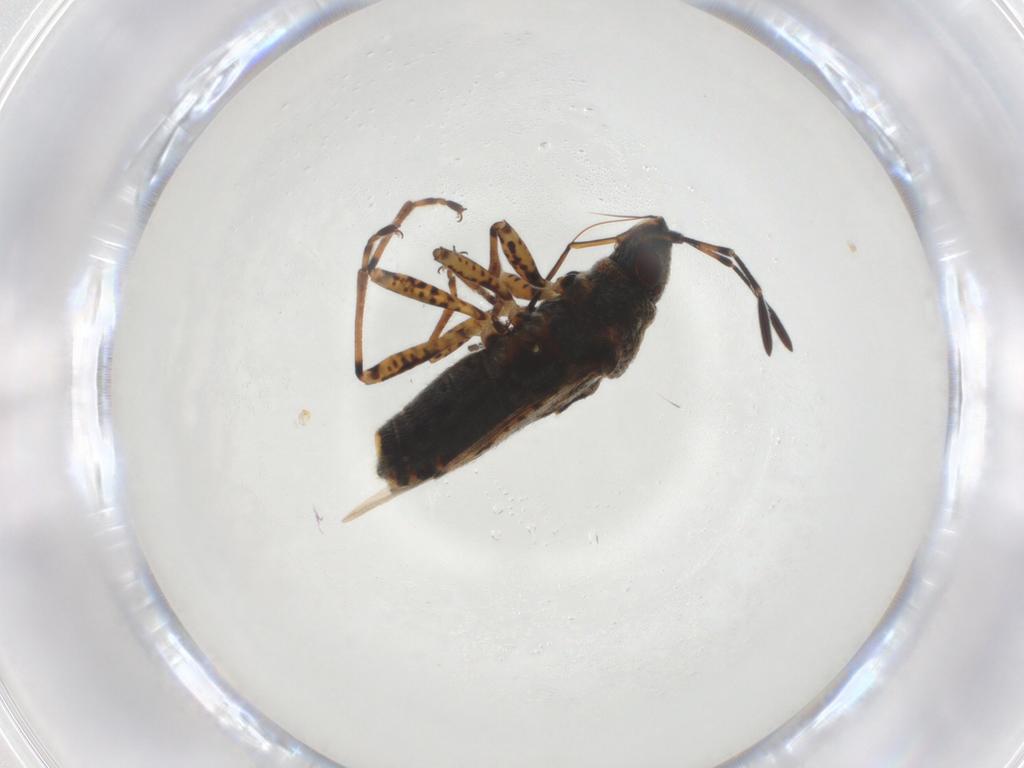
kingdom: Animalia
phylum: Arthropoda
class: Insecta
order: Hemiptera
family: Lygaeidae
